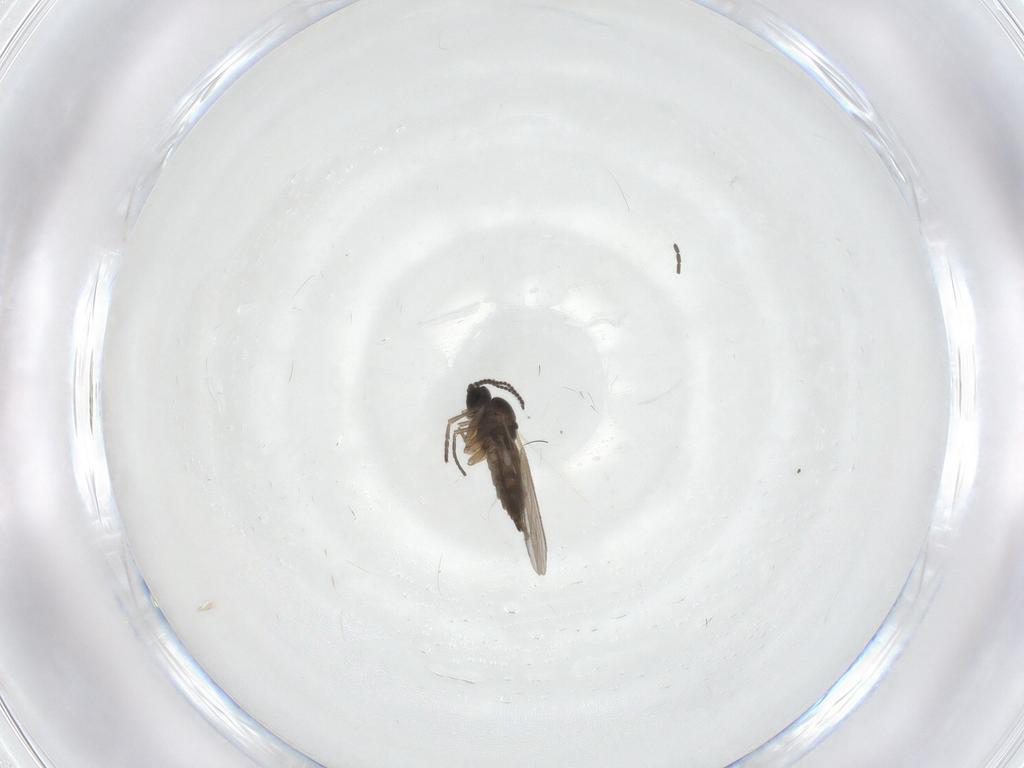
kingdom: Animalia
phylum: Arthropoda
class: Insecta
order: Diptera
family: Sciaridae
